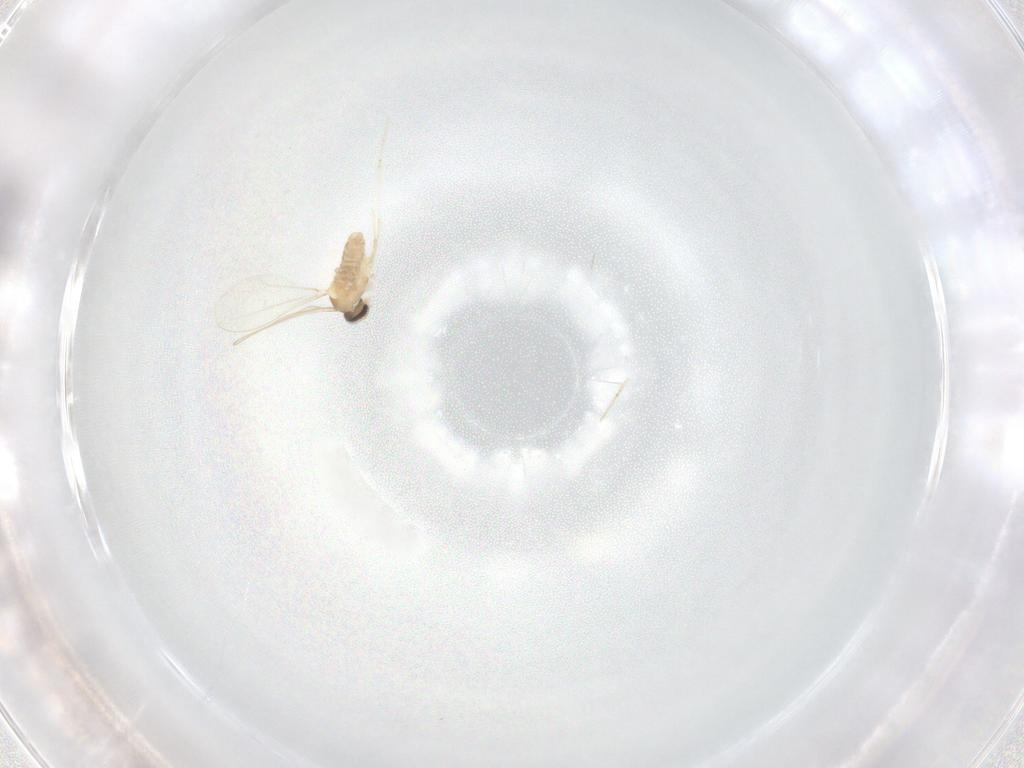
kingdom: Animalia
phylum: Arthropoda
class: Insecta
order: Diptera
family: Cecidomyiidae
